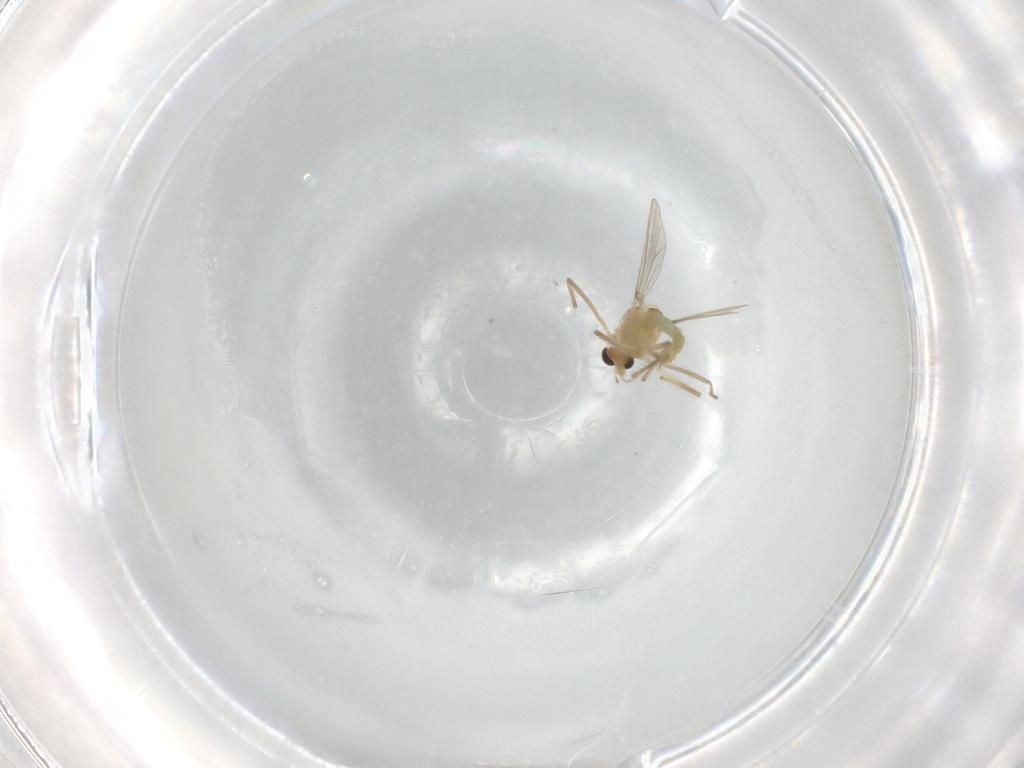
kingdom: Animalia
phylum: Arthropoda
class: Insecta
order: Diptera
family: Chironomidae
